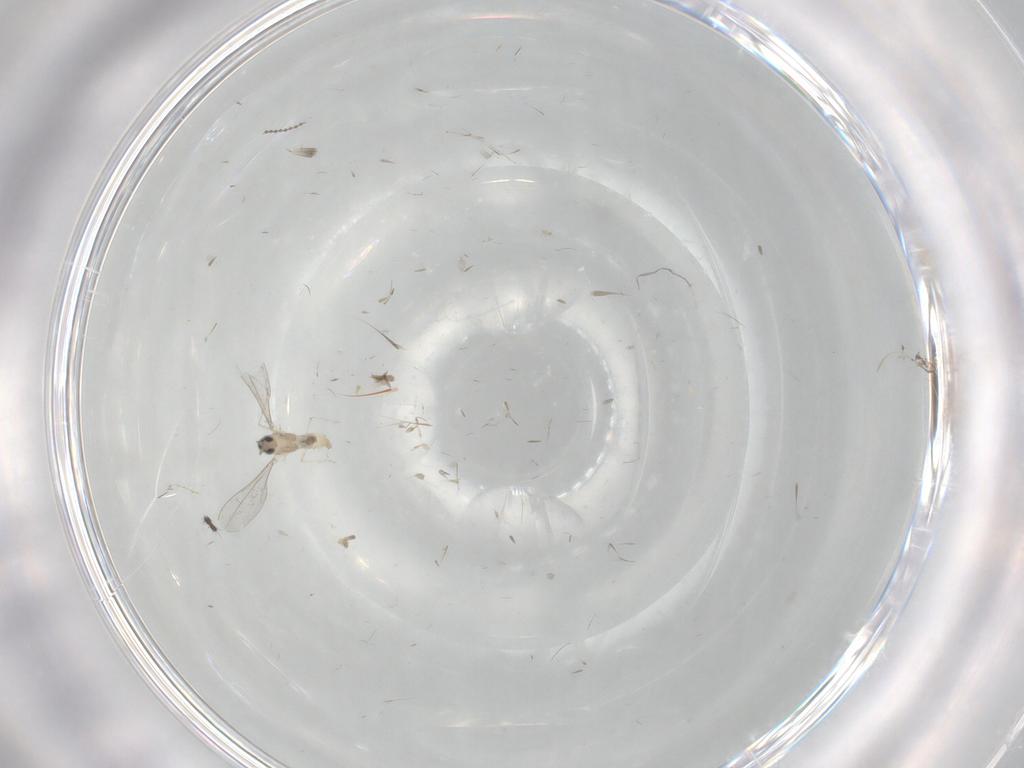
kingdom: Animalia
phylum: Arthropoda
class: Insecta
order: Diptera
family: Cecidomyiidae
